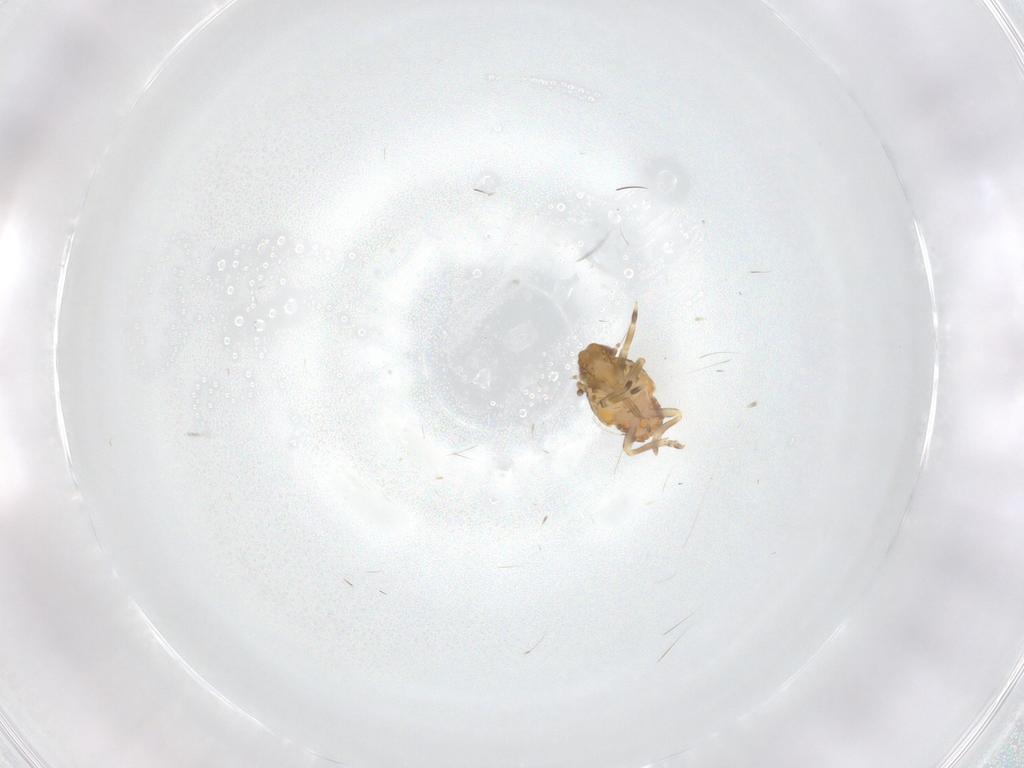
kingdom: Animalia
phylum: Arthropoda
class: Insecta
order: Hemiptera
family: Flatidae
